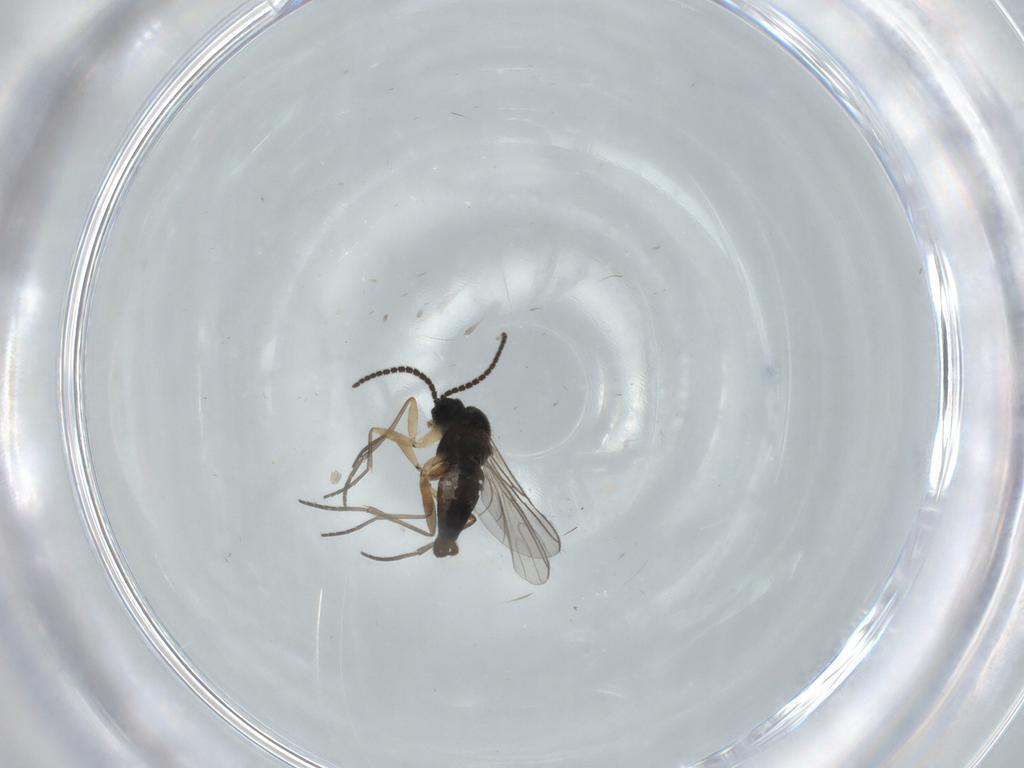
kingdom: Animalia
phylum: Arthropoda
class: Insecta
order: Diptera
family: Sciaridae
